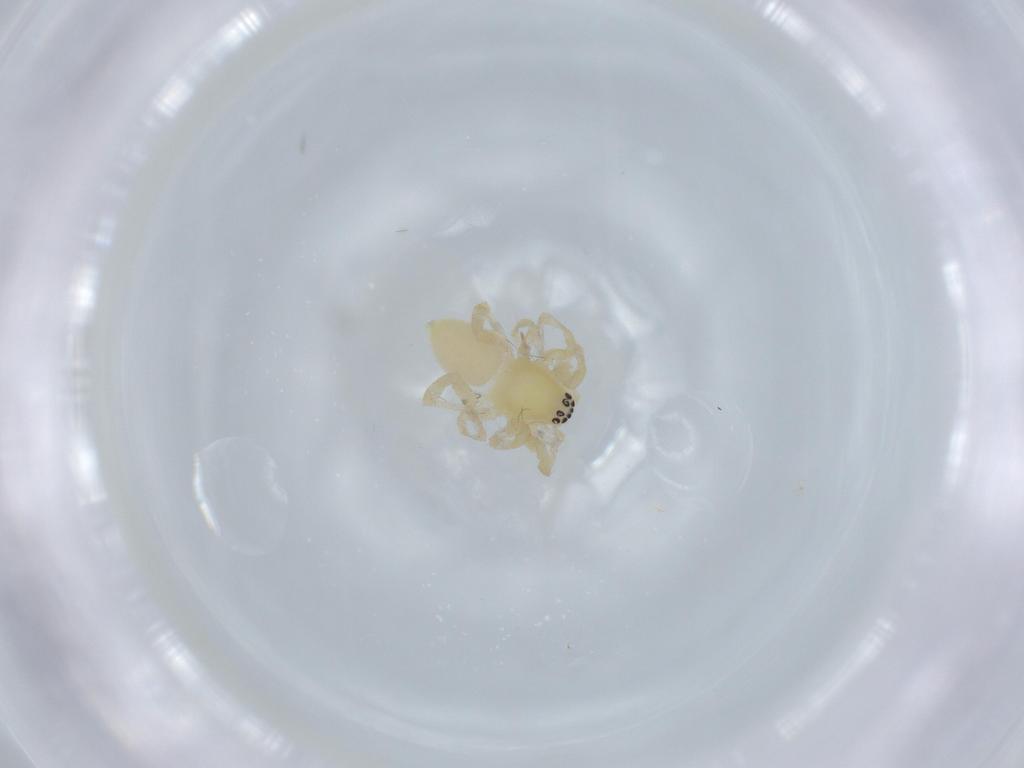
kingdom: Animalia
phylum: Arthropoda
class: Arachnida
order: Araneae
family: Anyphaenidae
